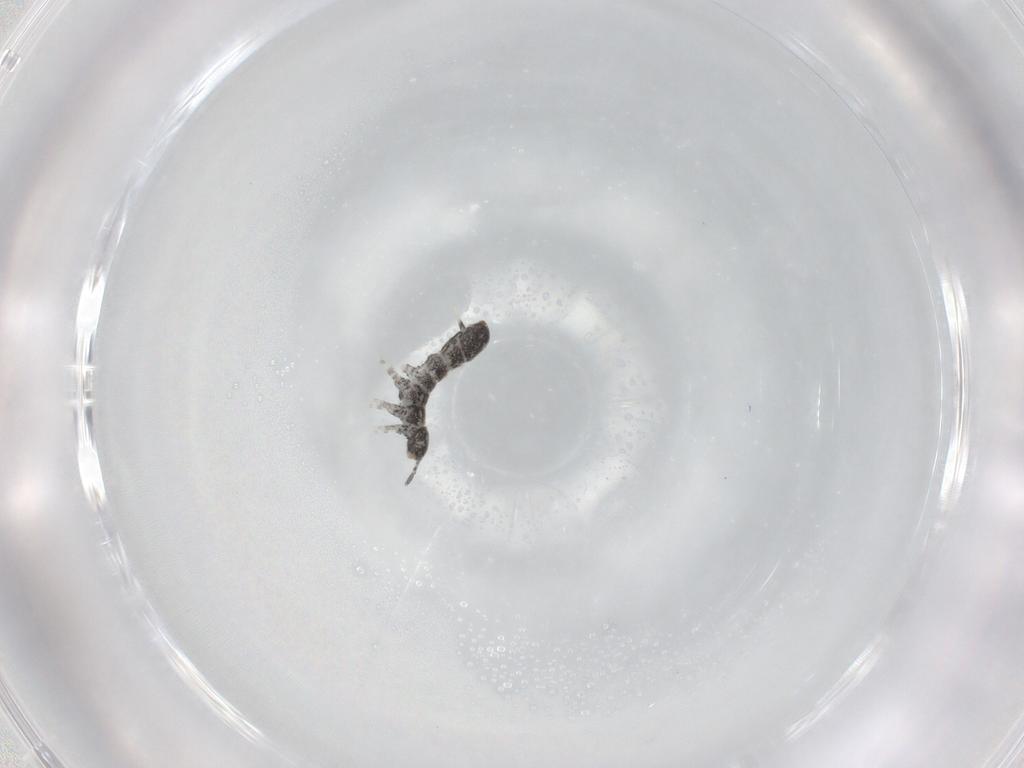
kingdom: Animalia
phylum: Arthropoda
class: Collembola
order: Entomobryomorpha
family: Isotomidae
